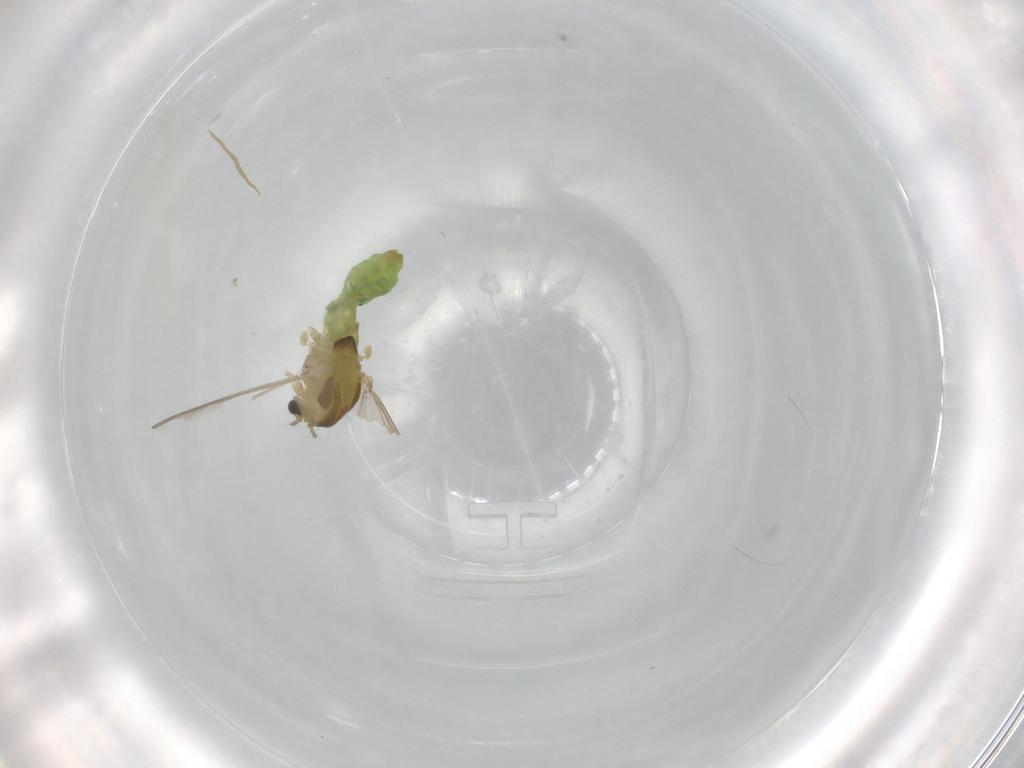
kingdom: Animalia
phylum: Arthropoda
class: Insecta
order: Diptera
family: Chironomidae
